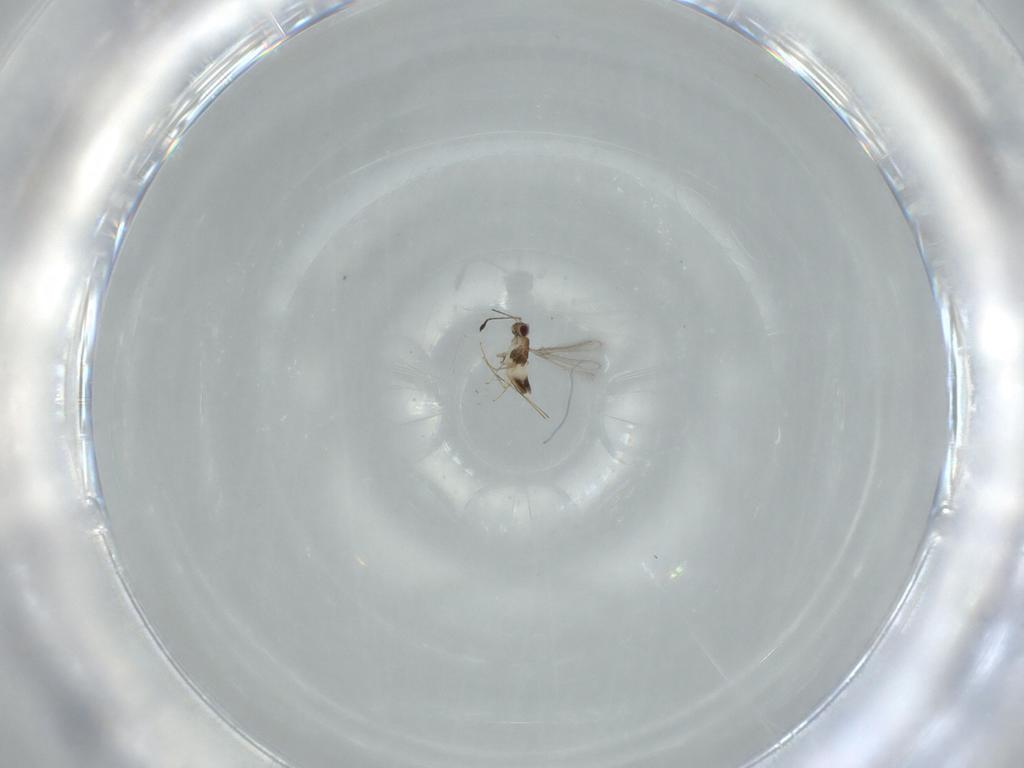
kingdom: Animalia
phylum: Arthropoda
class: Insecta
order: Hymenoptera
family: Mymaridae
